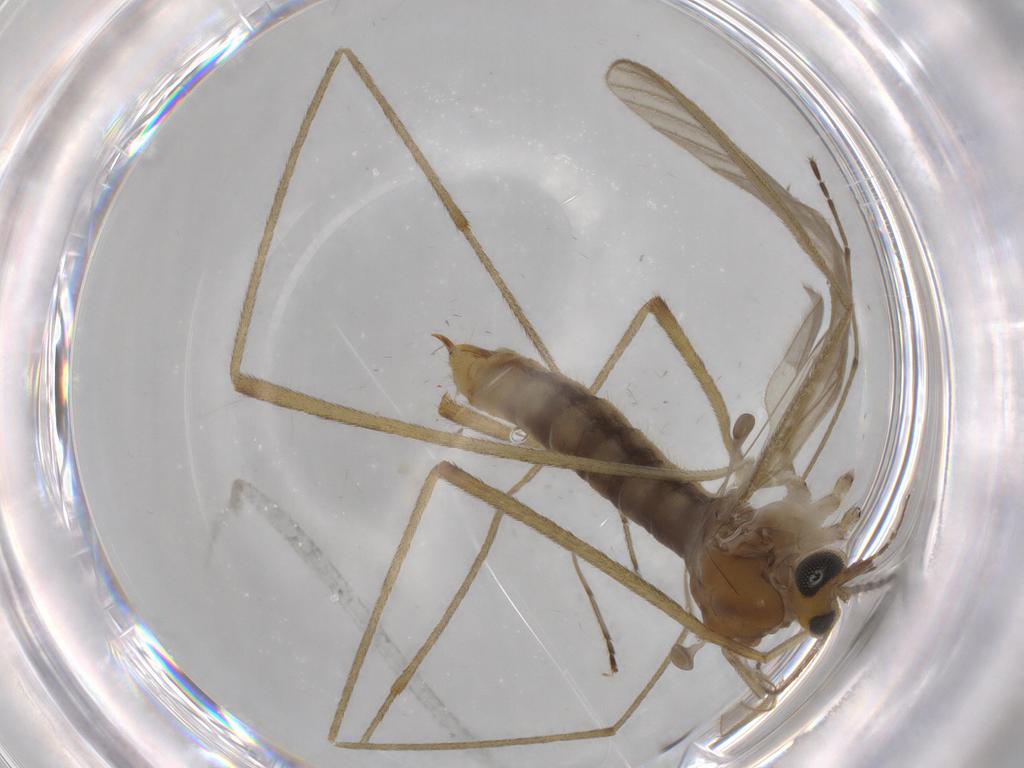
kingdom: Animalia
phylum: Arthropoda
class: Insecta
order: Diptera
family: Limoniidae
